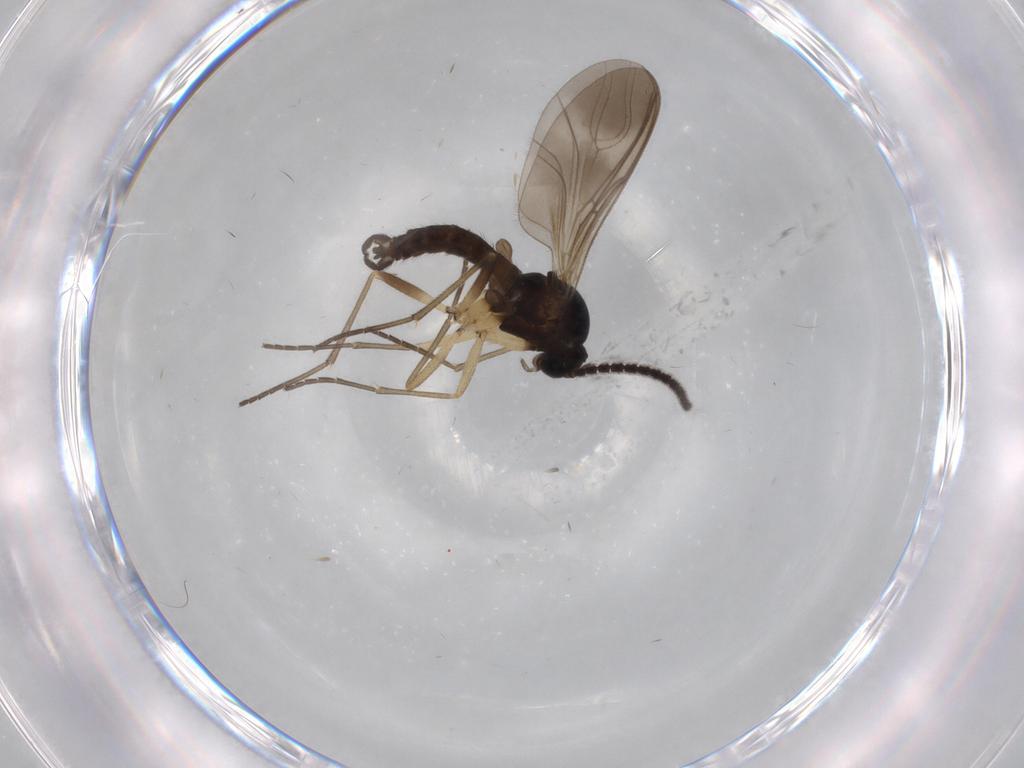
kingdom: Animalia
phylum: Arthropoda
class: Insecta
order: Diptera
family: Sciaridae
